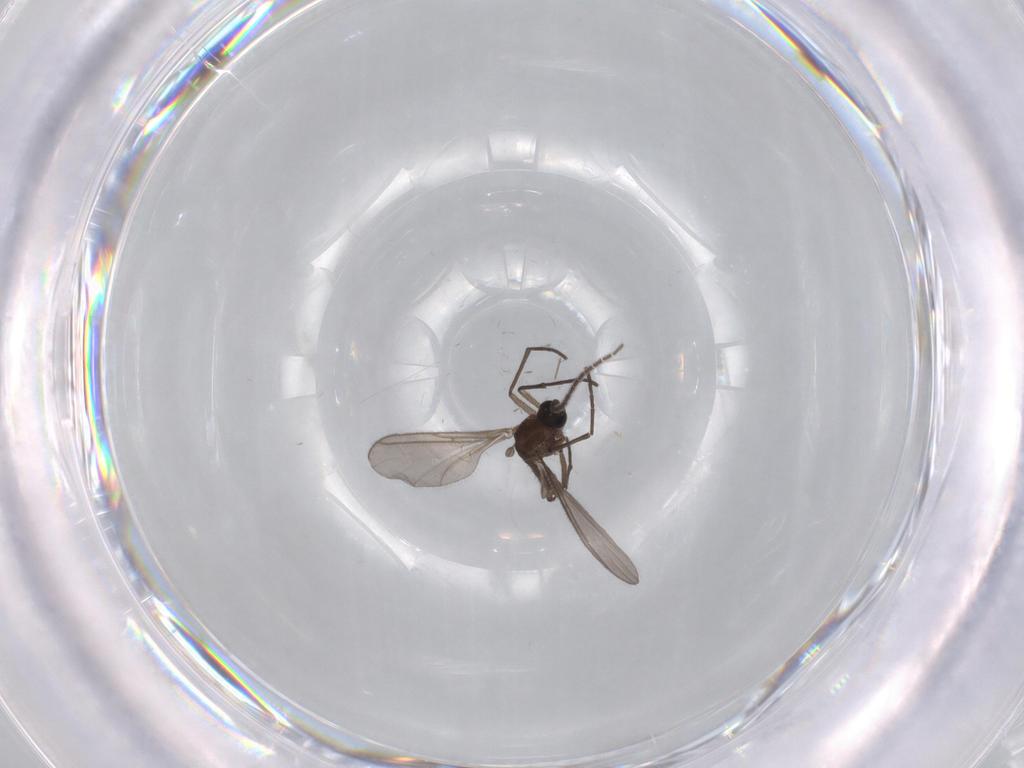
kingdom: Animalia
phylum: Arthropoda
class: Insecta
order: Diptera
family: Sciaridae
